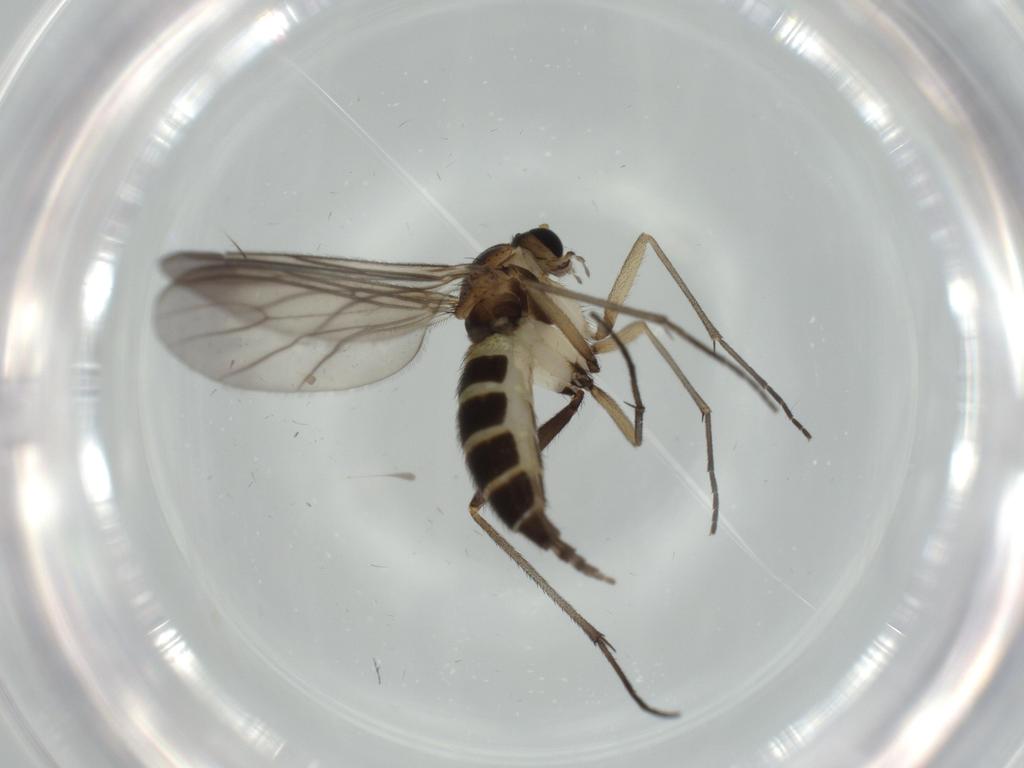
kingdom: Animalia
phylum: Arthropoda
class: Insecta
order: Diptera
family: Sciaridae
